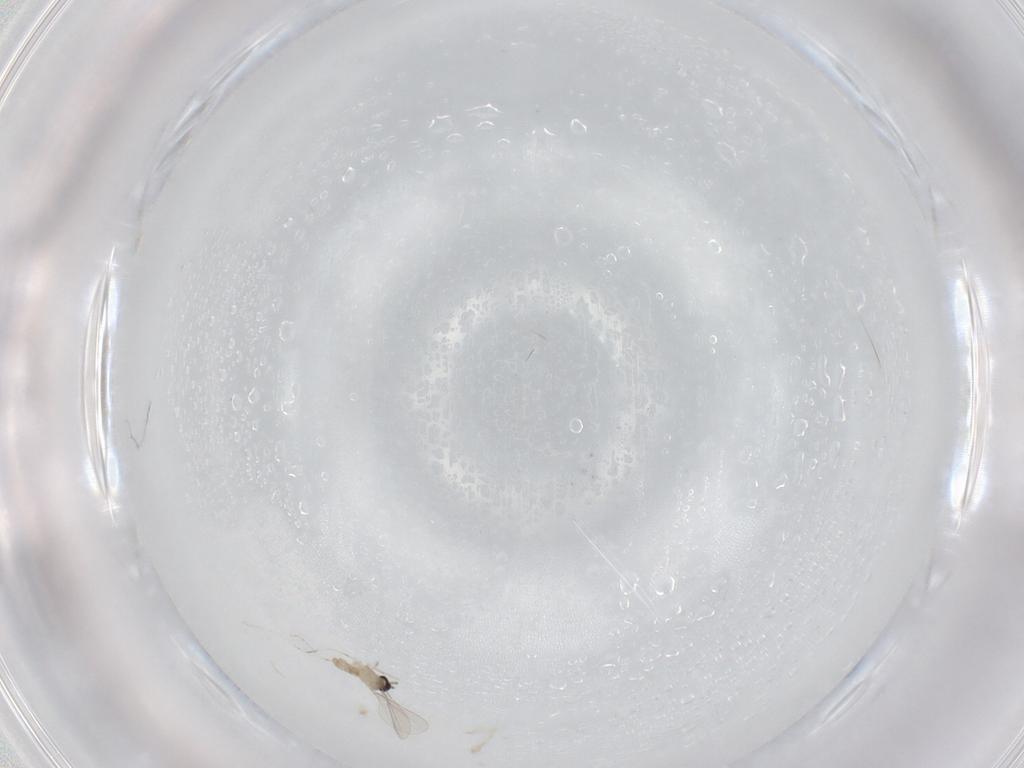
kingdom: Animalia
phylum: Arthropoda
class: Insecta
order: Diptera
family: Cecidomyiidae
